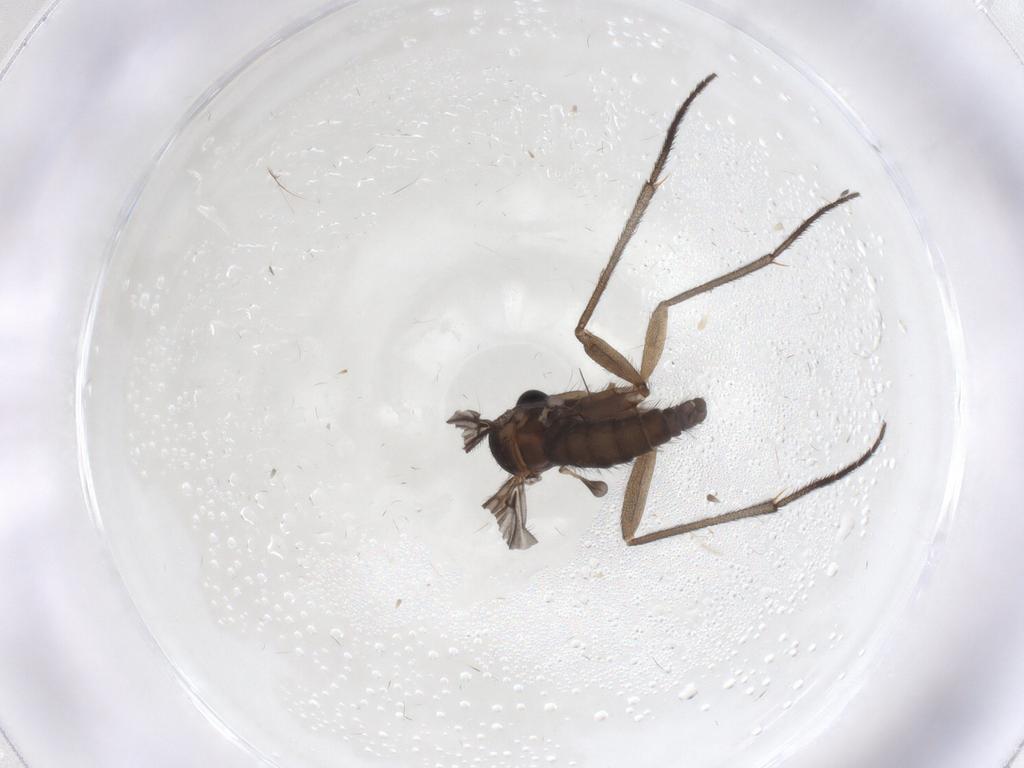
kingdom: Animalia
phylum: Arthropoda
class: Insecta
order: Diptera
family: Sciaridae
